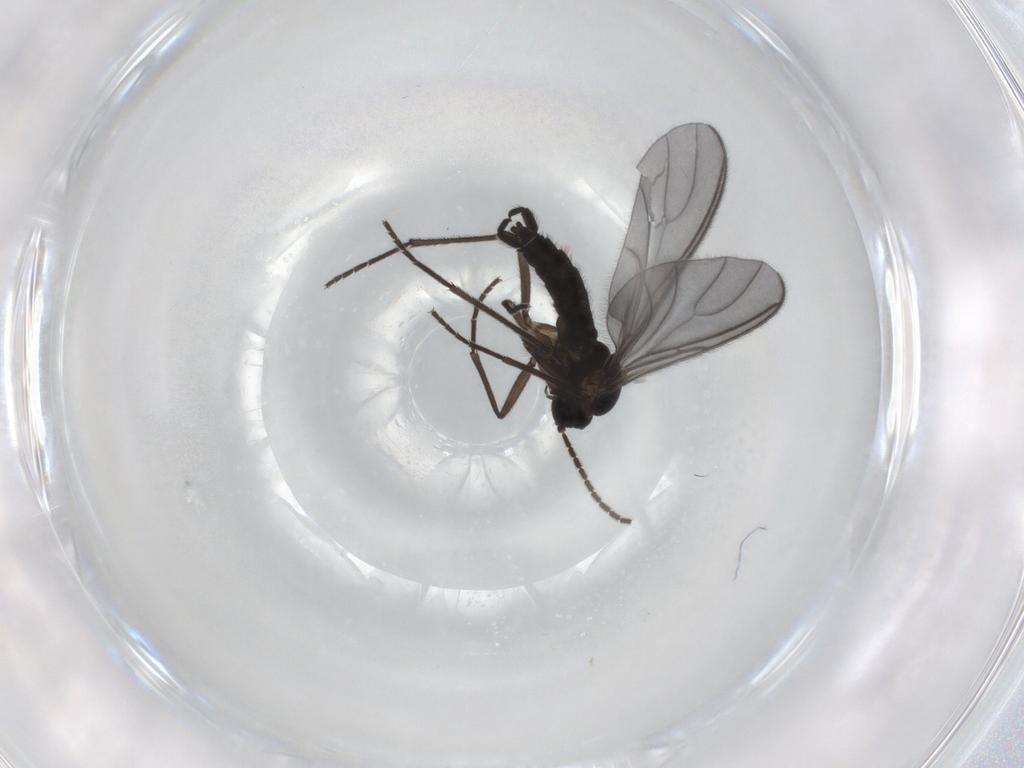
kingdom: Animalia
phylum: Arthropoda
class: Insecta
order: Diptera
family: Sciaridae
